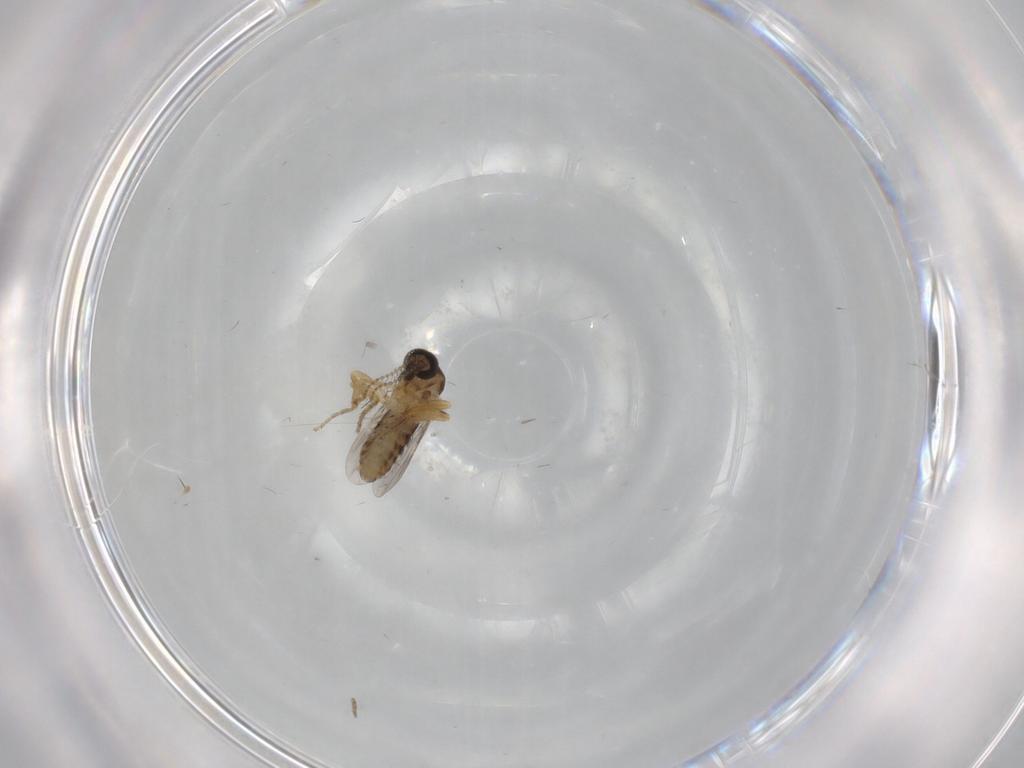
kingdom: Animalia
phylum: Arthropoda
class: Insecta
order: Diptera
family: Ceratopogonidae
